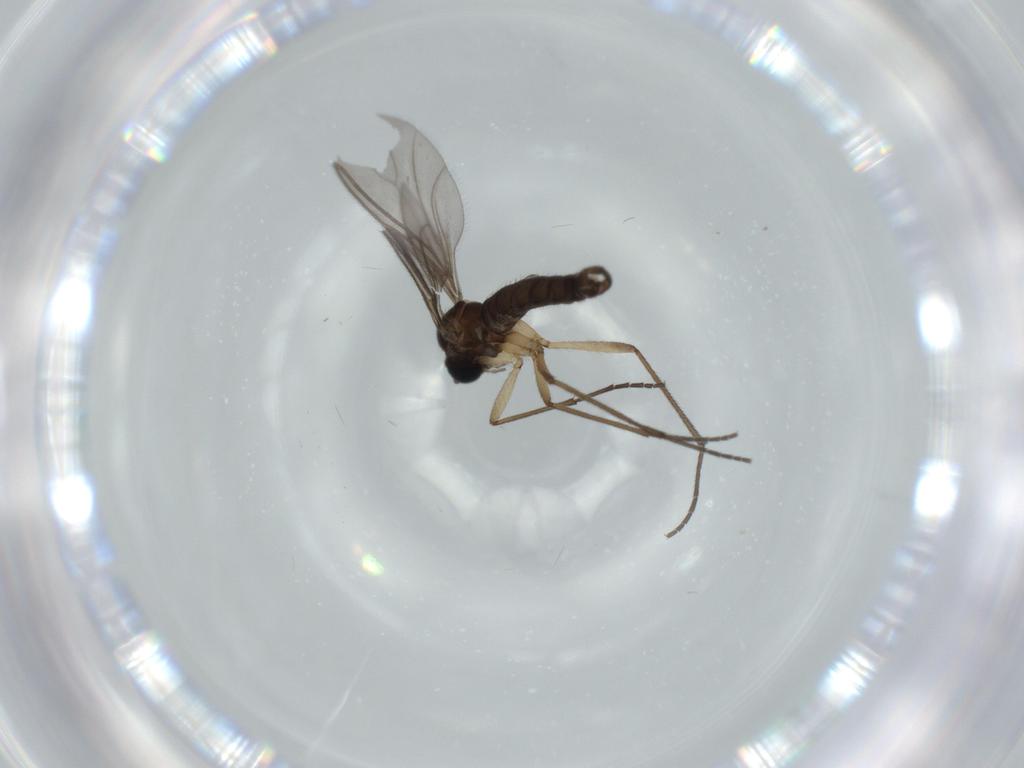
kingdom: Animalia
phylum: Arthropoda
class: Insecta
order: Diptera
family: Sciaridae
